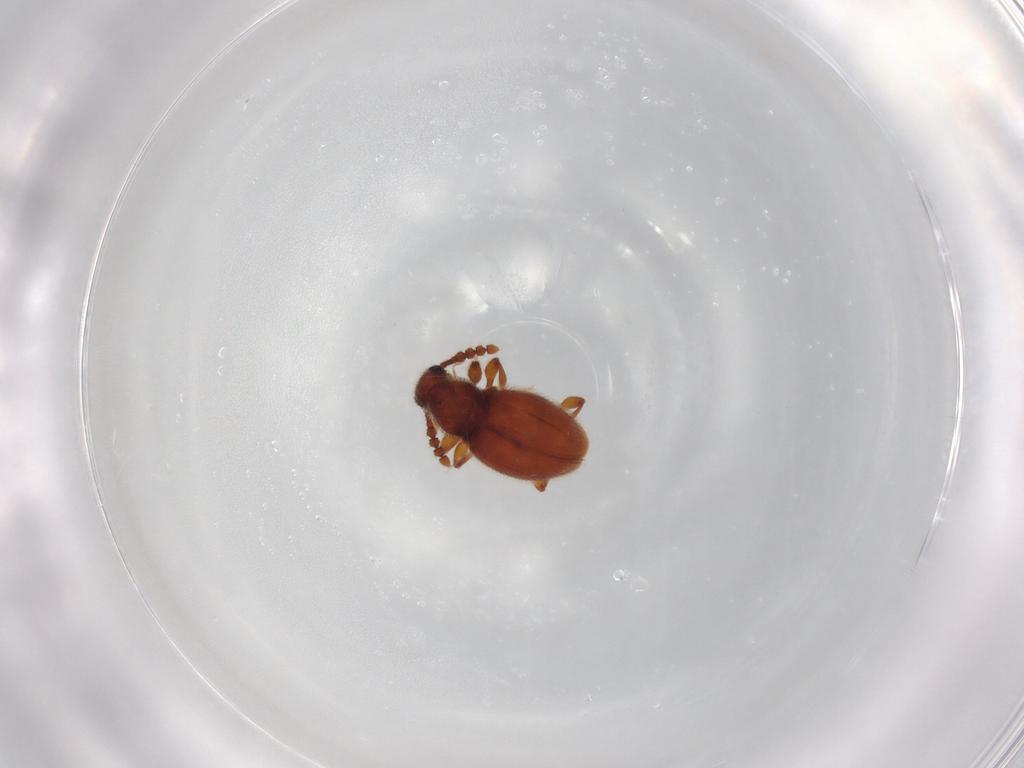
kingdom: Animalia
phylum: Arthropoda
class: Insecta
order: Coleoptera
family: Staphylinidae
